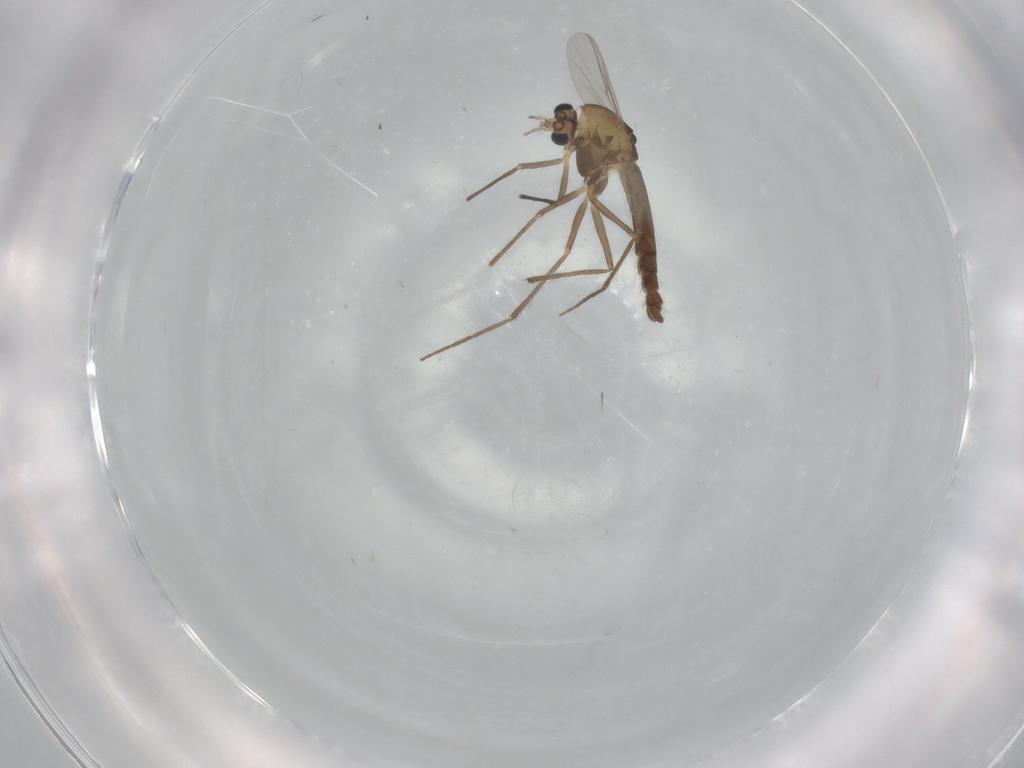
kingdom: Animalia
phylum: Arthropoda
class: Insecta
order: Diptera
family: Chironomidae
